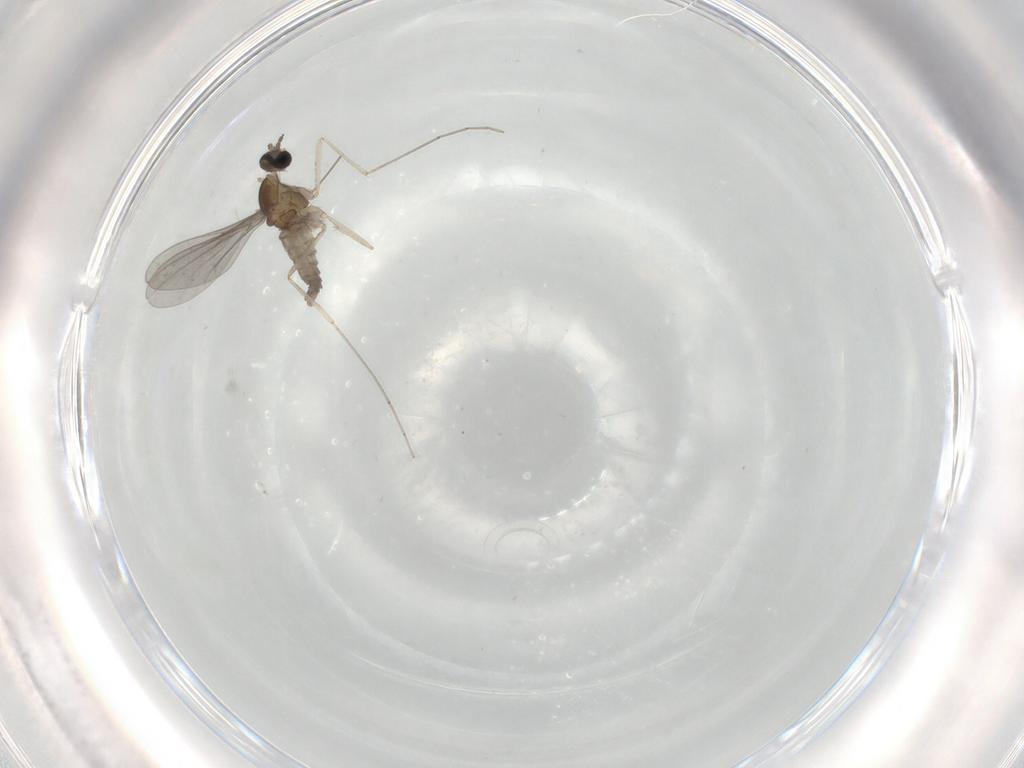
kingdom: Animalia
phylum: Arthropoda
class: Insecta
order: Diptera
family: Cecidomyiidae
